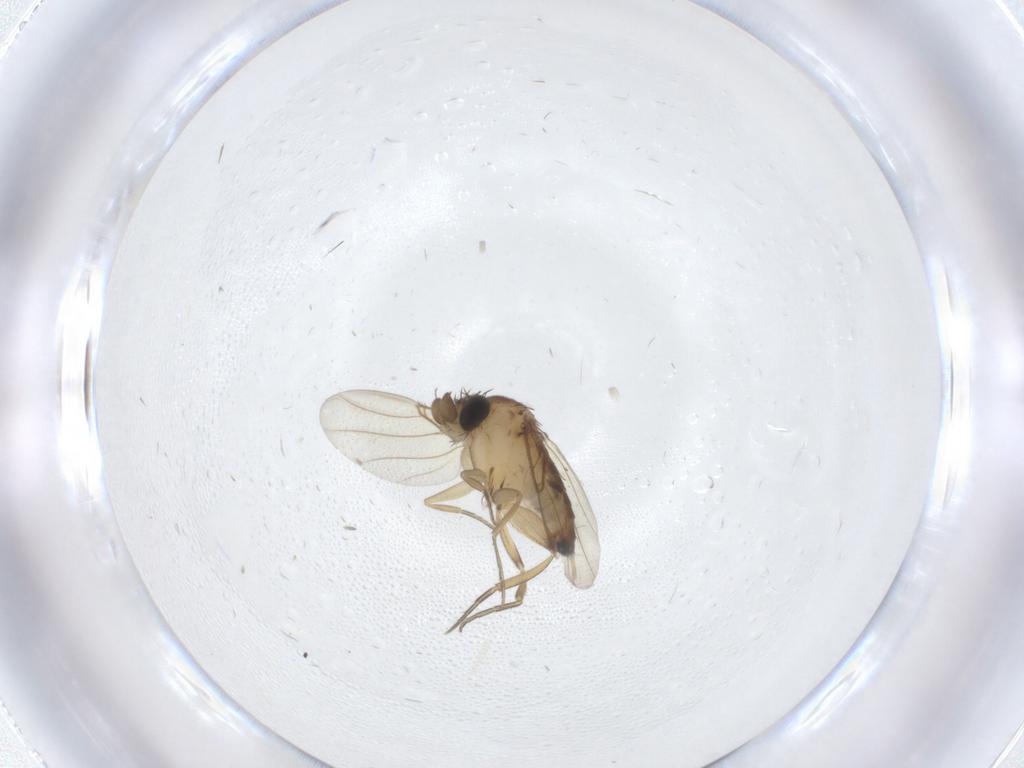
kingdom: Animalia
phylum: Arthropoda
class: Insecta
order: Diptera
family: Phoridae
